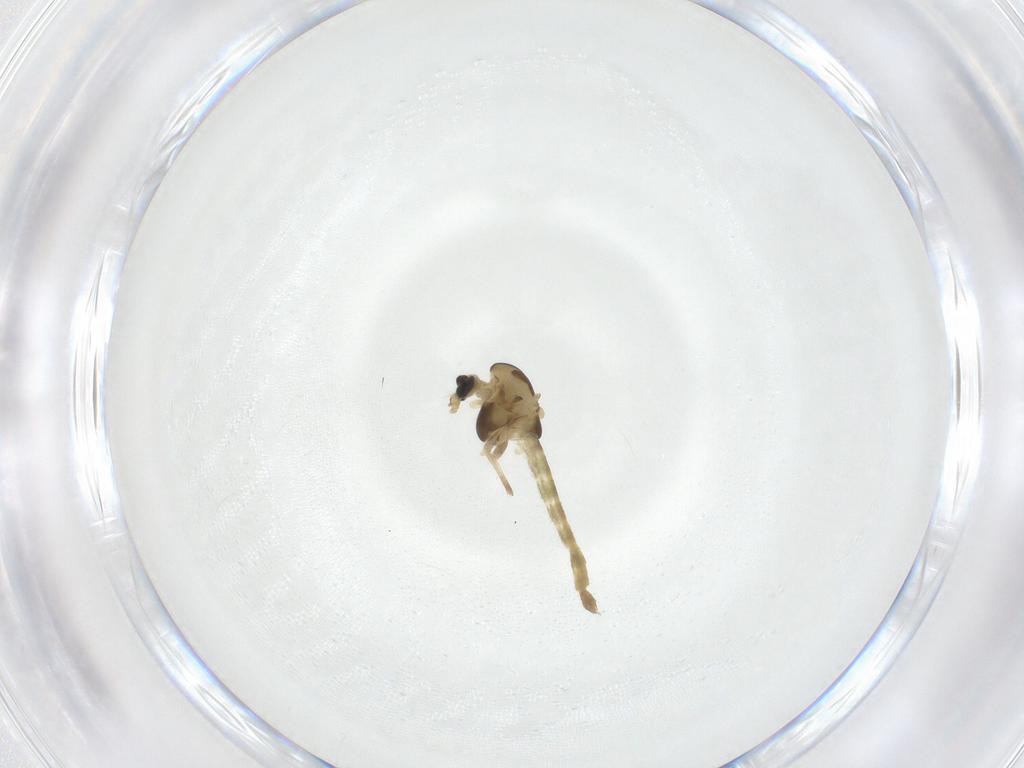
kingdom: Animalia
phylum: Arthropoda
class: Insecta
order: Diptera
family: Chironomidae
